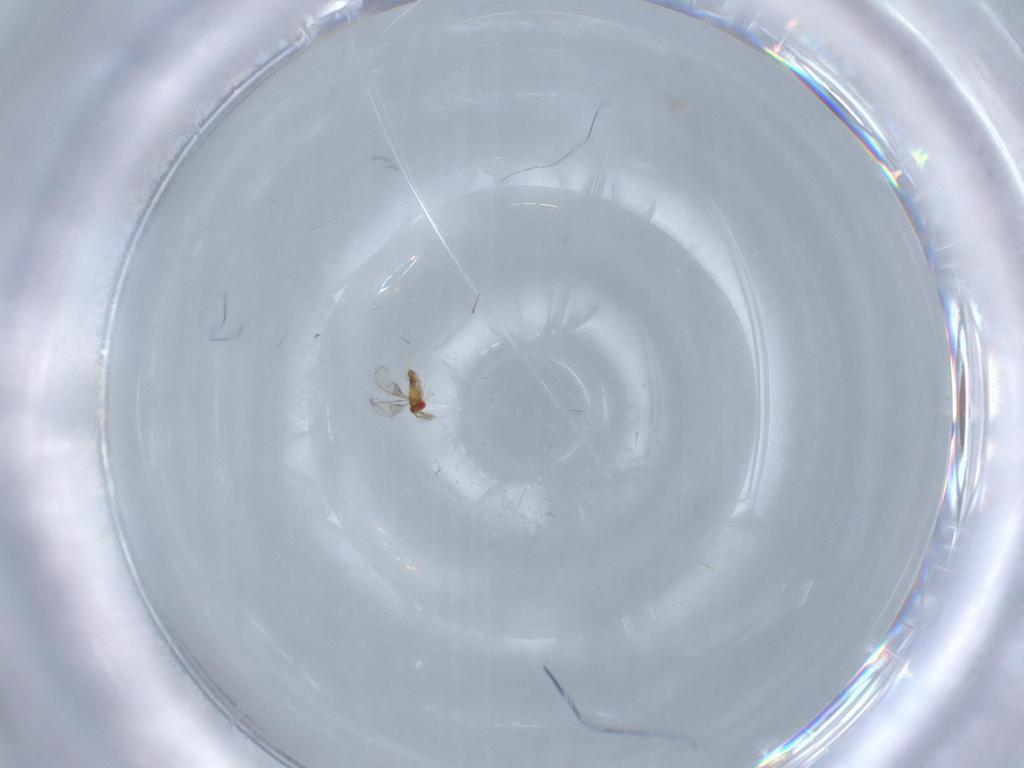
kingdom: Animalia
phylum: Arthropoda
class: Insecta
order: Hymenoptera
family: Trichogrammatidae
